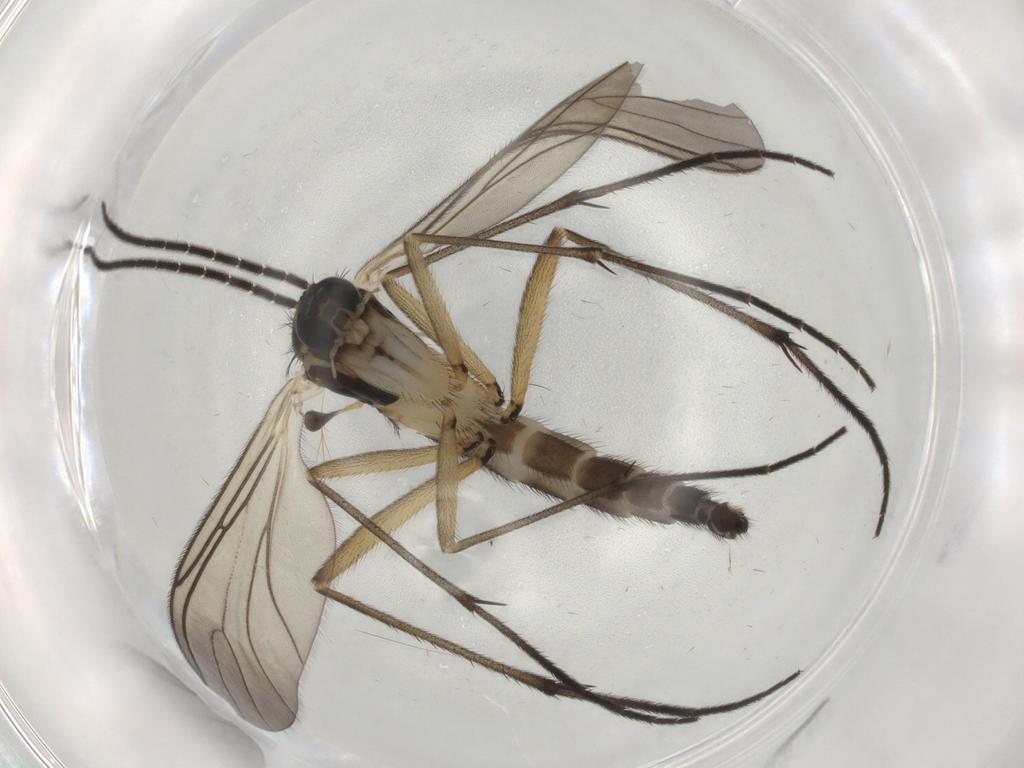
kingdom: Animalia
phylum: Arthropoda
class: Insecta
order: Diptera
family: Sciaridae
